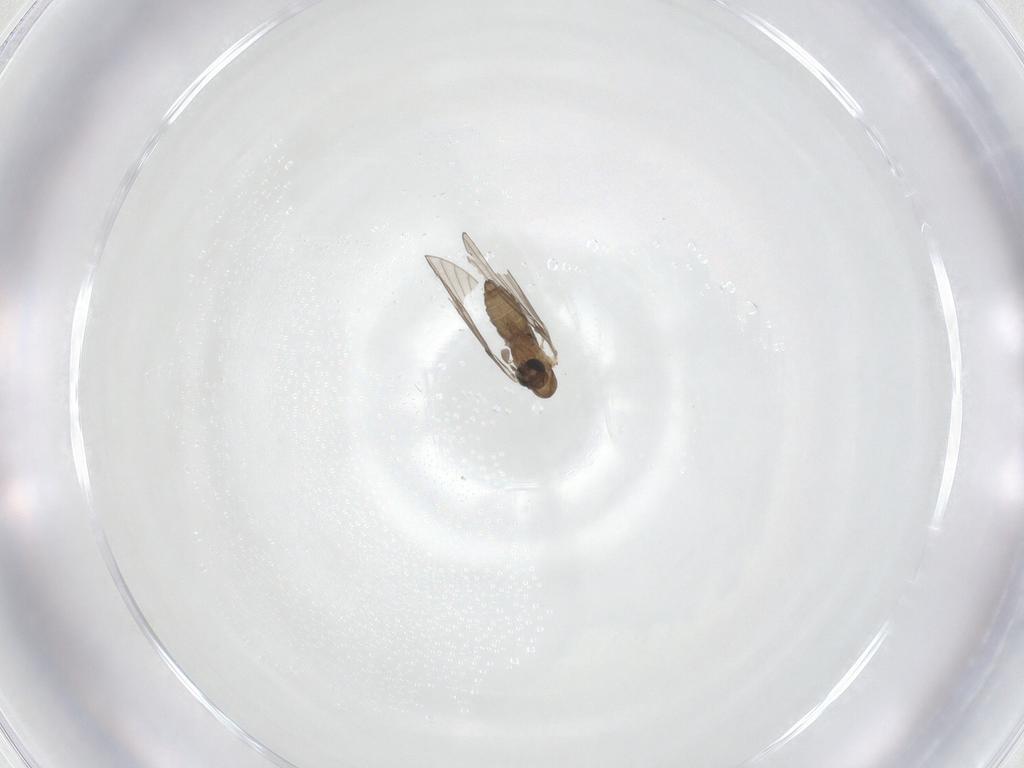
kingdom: Animalia
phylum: Arthropoda
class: Insecta
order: Diptera
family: Psychodidae
